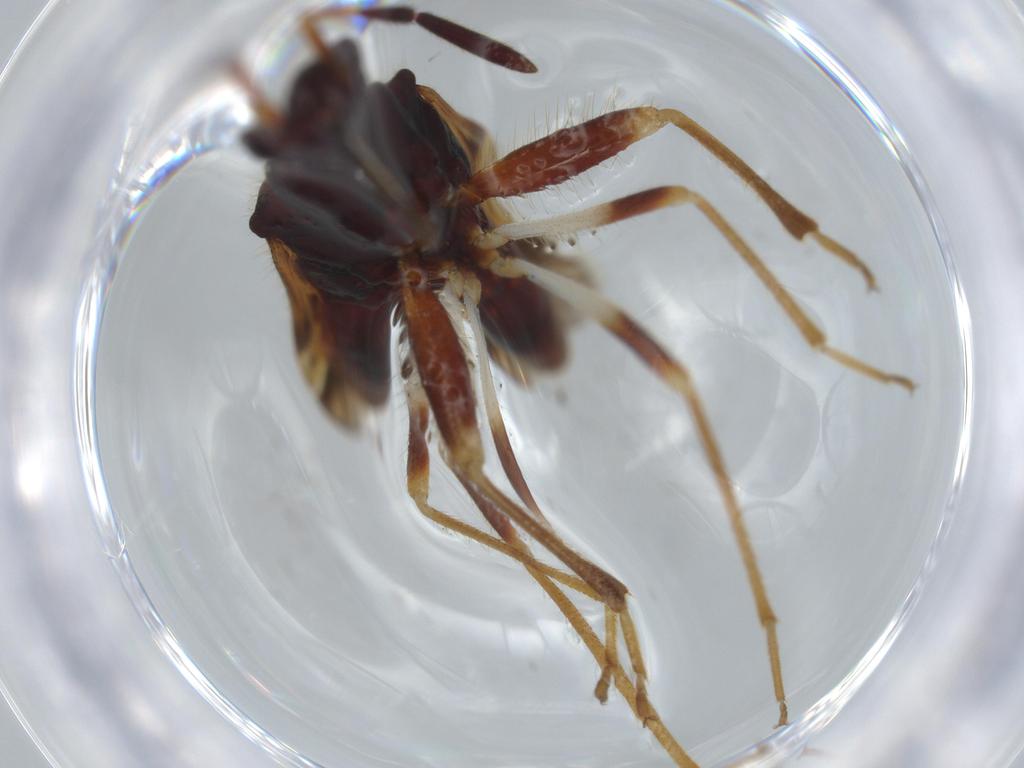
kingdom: Animalia
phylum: Arthropoda
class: Insecta
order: Hemiptera
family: Rhyparochromidae
